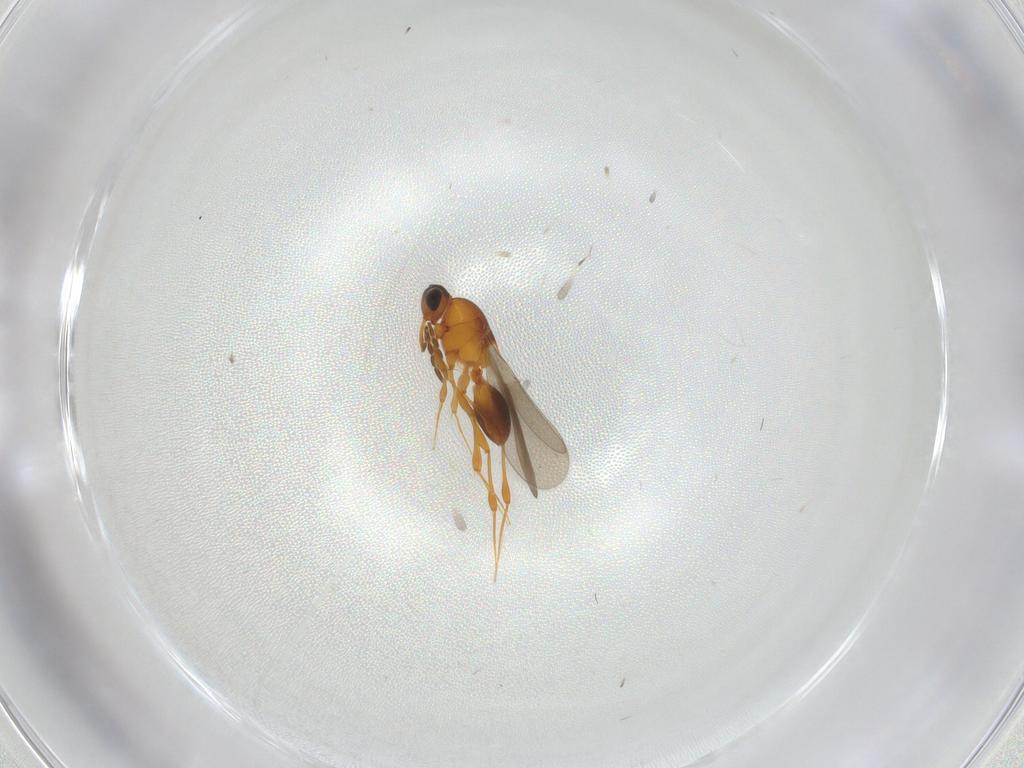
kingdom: Animalia
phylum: Arthropoda
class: Insecta
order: Hymenoptera
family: Platygastridae
